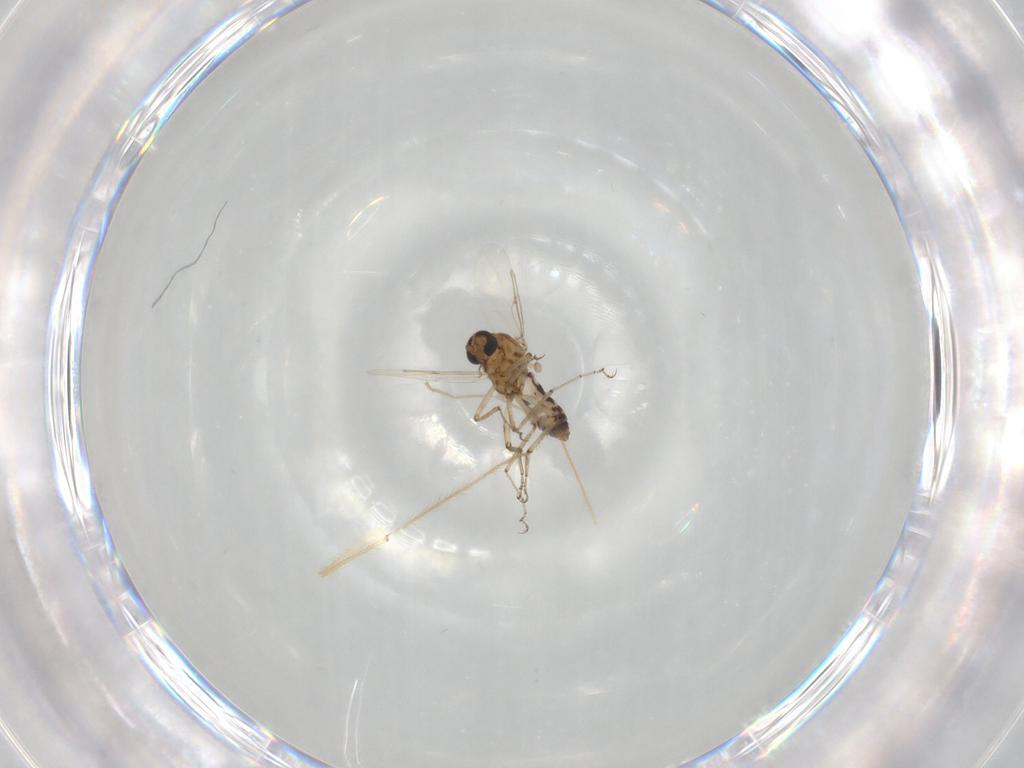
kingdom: Animalia
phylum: Arthropoda
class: Insecta
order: Diptera
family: Ceratopogonidae
